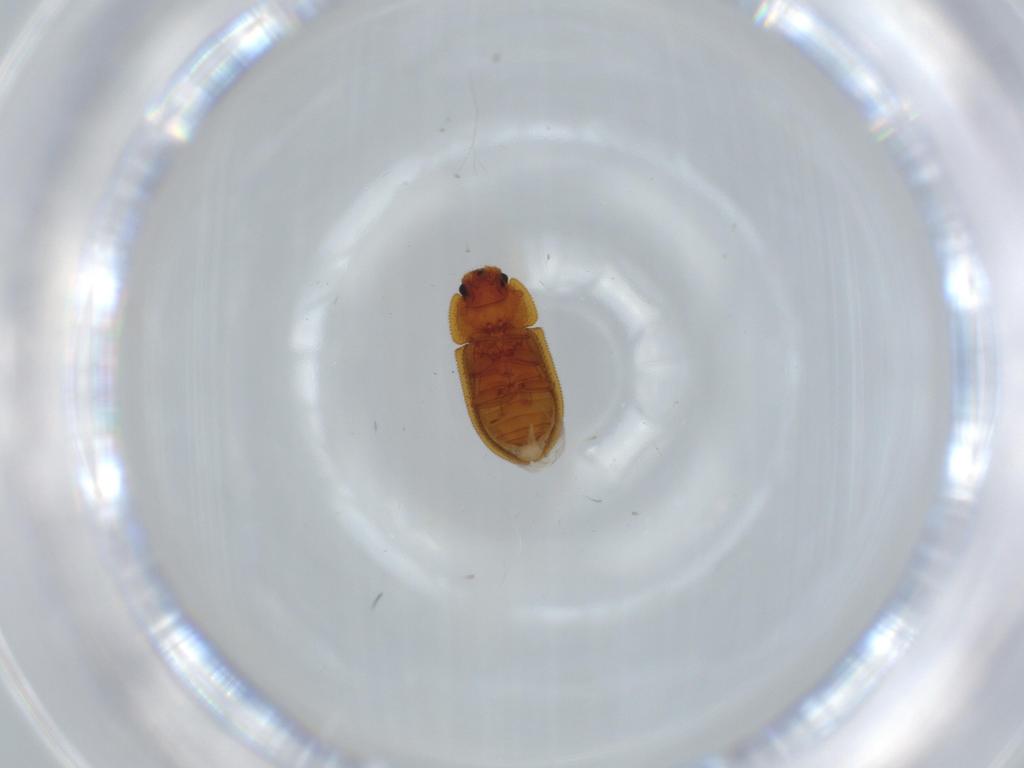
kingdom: Animalia
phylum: Arthropoda
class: Insecta
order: Coleoptera
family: Zopheridae
